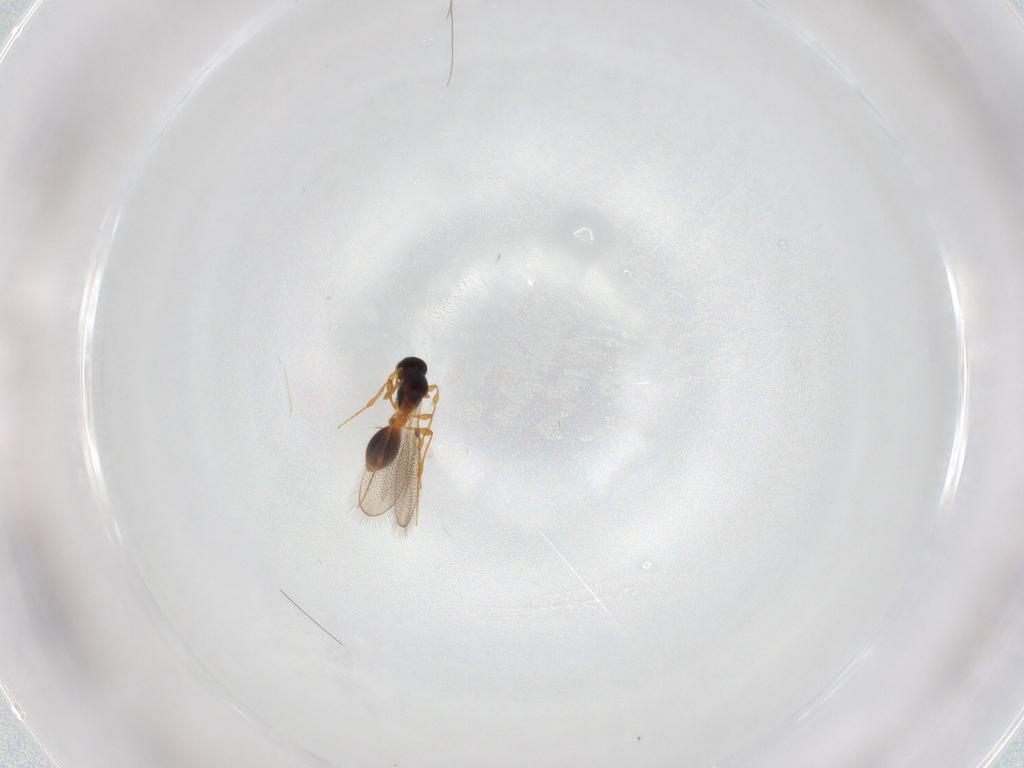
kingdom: Animalia
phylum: Arthropoda
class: Insecta
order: Hymenoptera
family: Platygastridae
